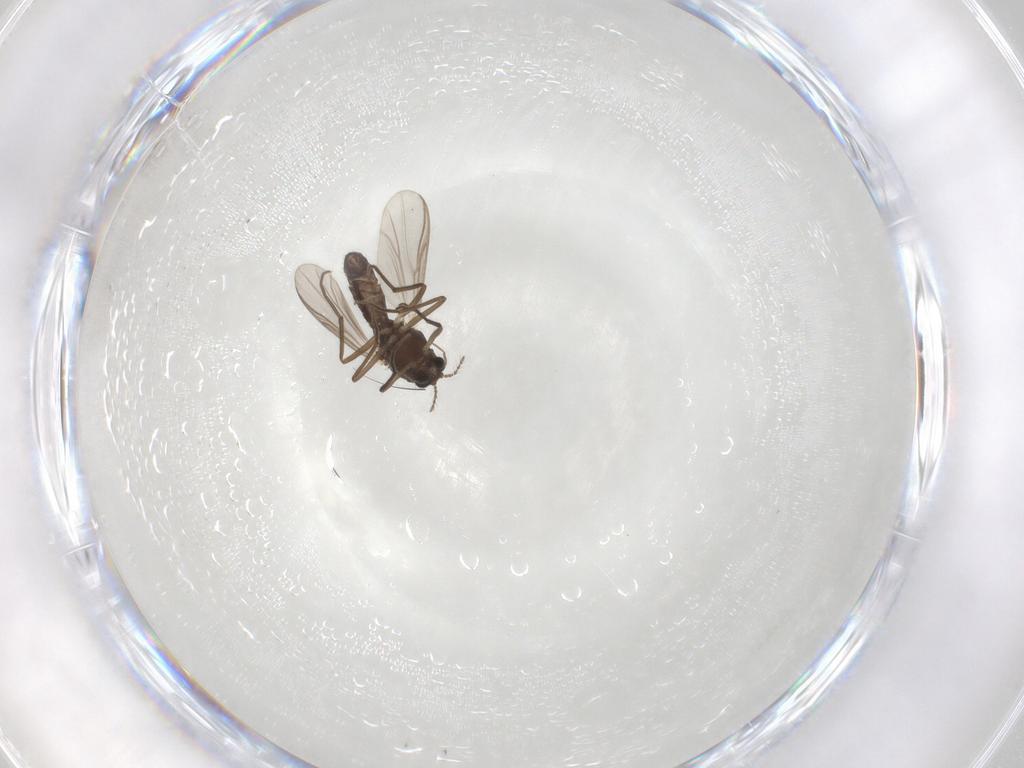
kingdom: Animalia
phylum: Arthropoda
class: Insecta
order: Diptera
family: Chironomidae
